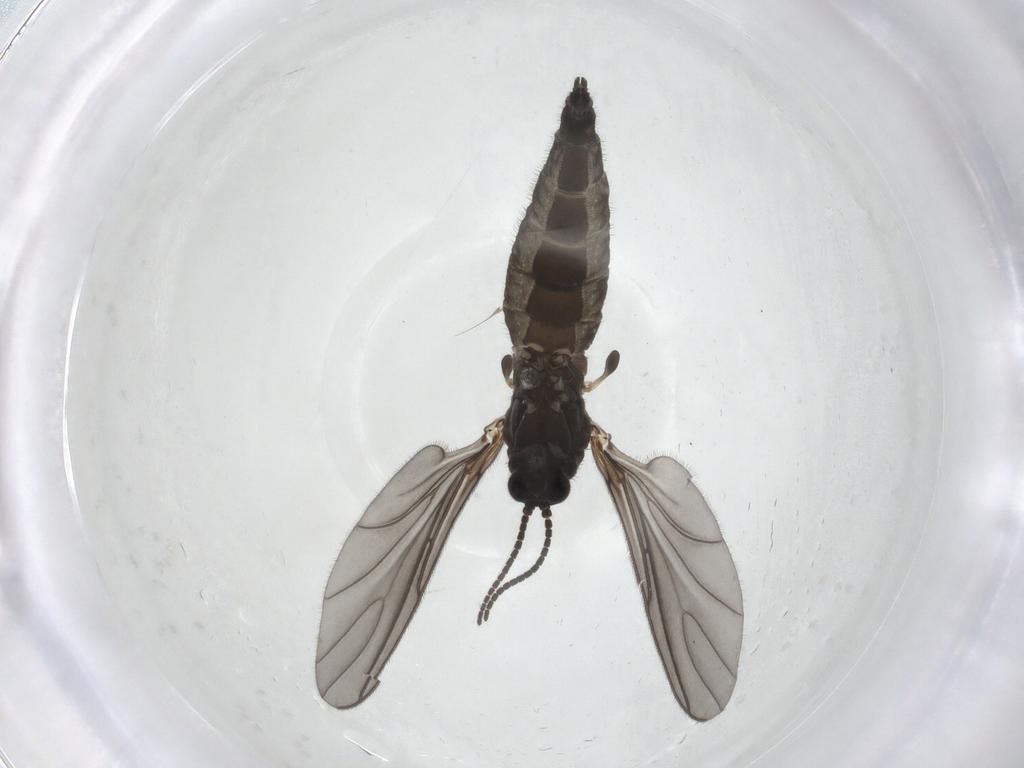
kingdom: Animalia
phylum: Arthropoda
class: Insecta
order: Diptera
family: Sciaridae
